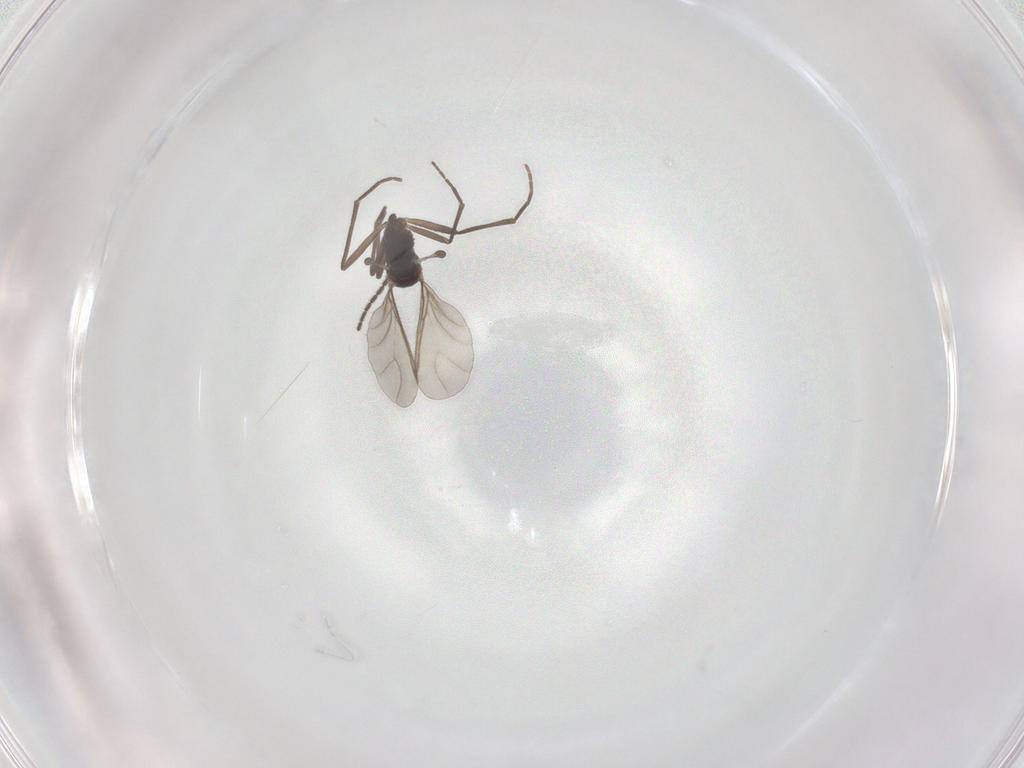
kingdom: Animalia
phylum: Arthropoda
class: Insecta
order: Diptera
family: Sciaridae
